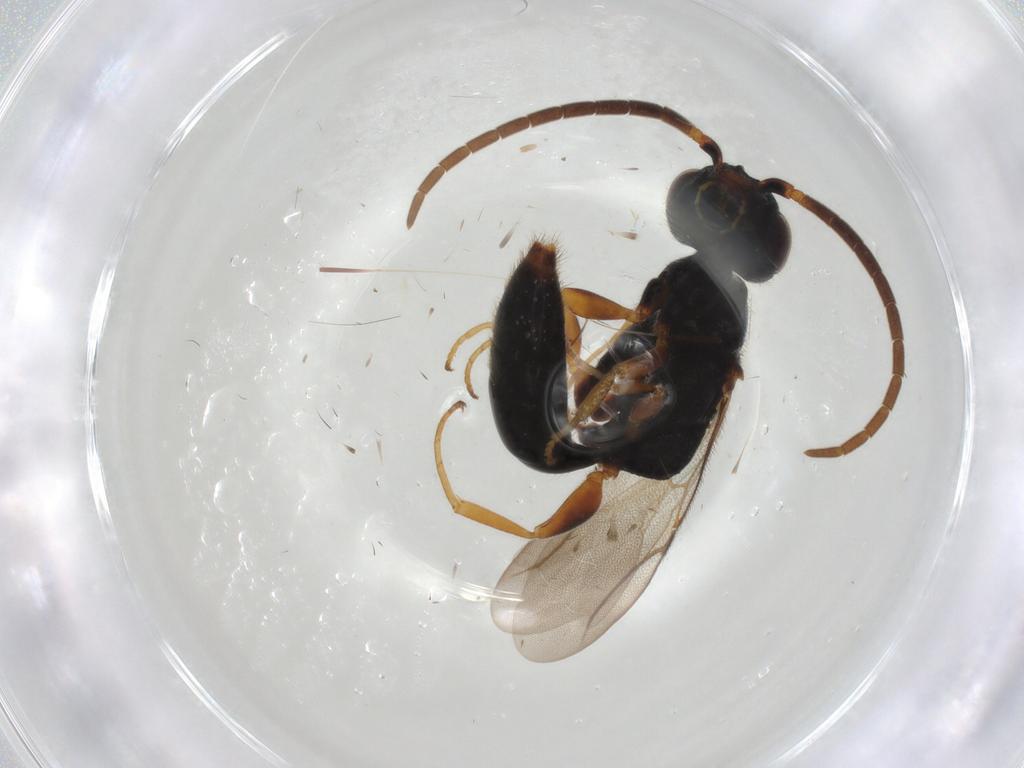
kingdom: Animalia
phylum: Arthropoda
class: Insecta
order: Hymenoptera
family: Bethylidae
